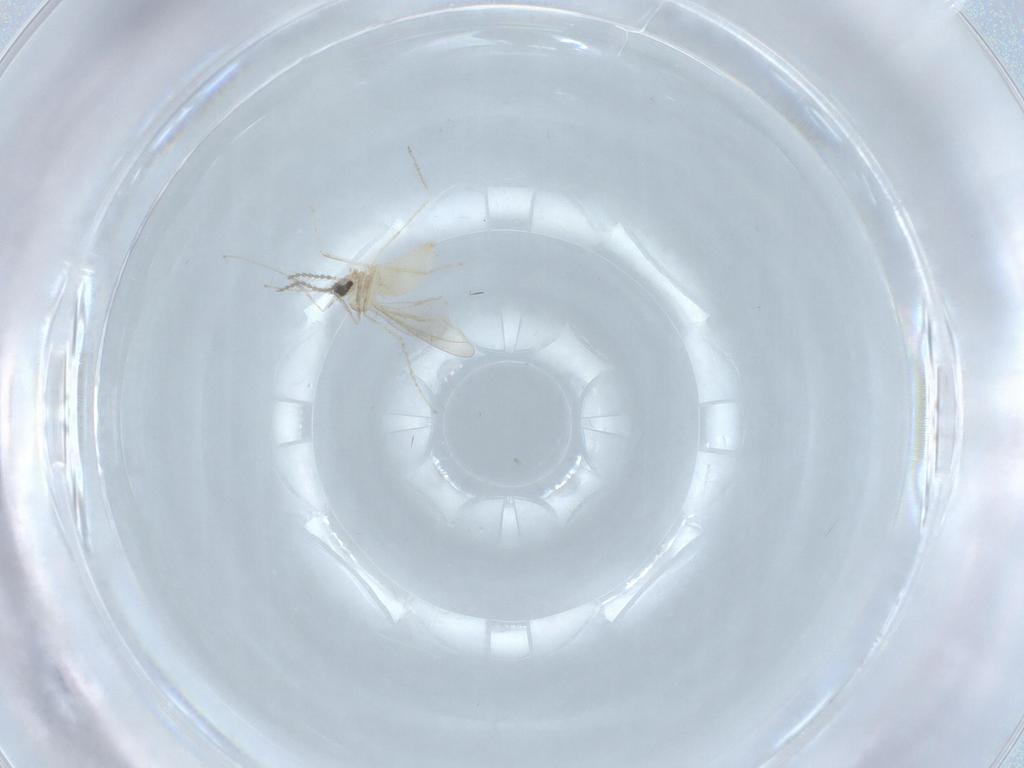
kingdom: Animalia
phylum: Arthropoda
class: Insecta
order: Diptera
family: Cecidomyiidae
